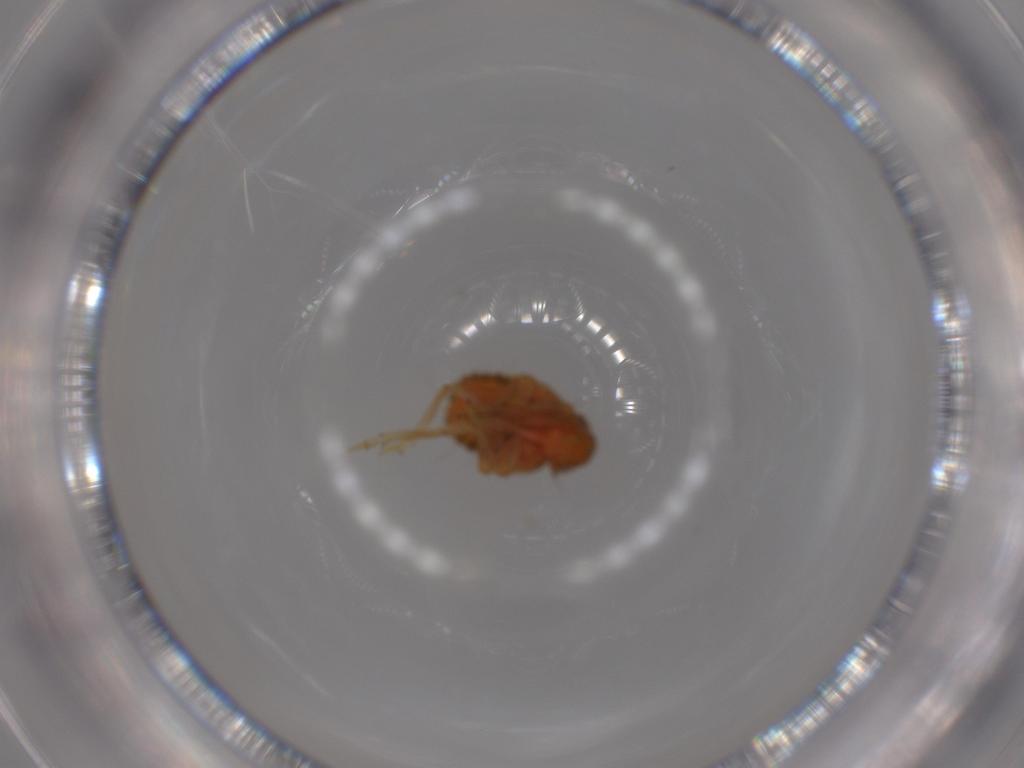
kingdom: Animalia
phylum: Arthropoda
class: Insecta
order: Hemiptera
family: Issidae
